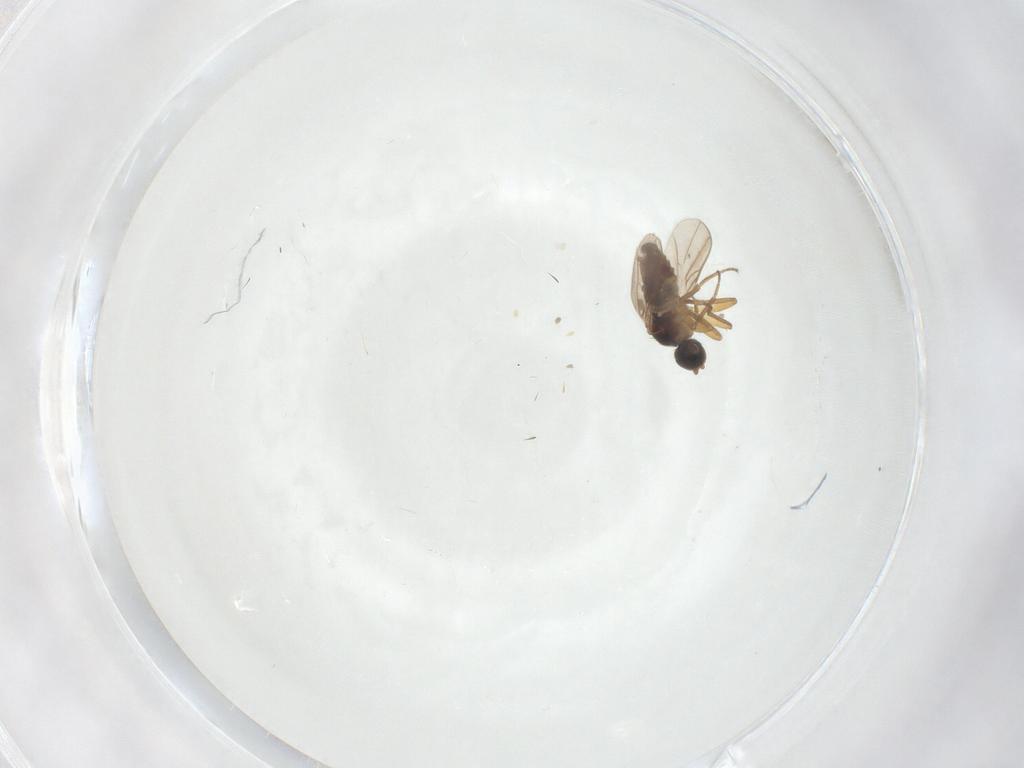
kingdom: Animalia
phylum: Arthropoda
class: Insecta
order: Diptera
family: Hybotidae
